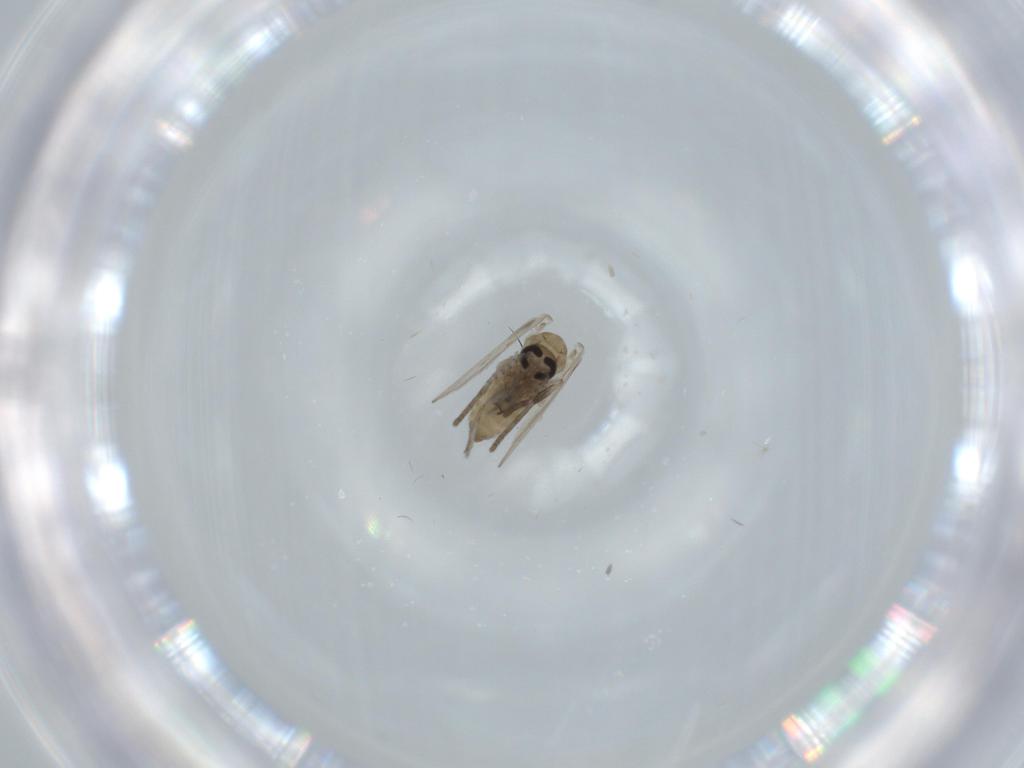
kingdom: Animalia
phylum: Arthropoda
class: Insecta
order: Diptera
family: Psychodidae
